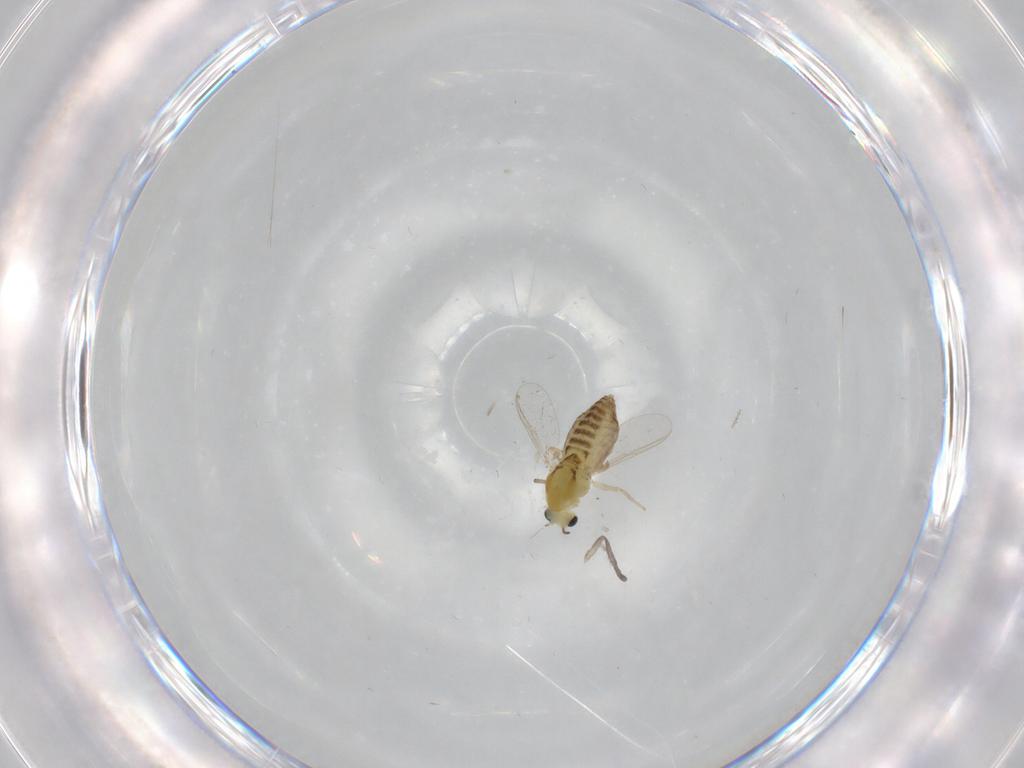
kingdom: Animalia
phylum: Arthropoda
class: Insecta
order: Diptera
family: Chironomidae
